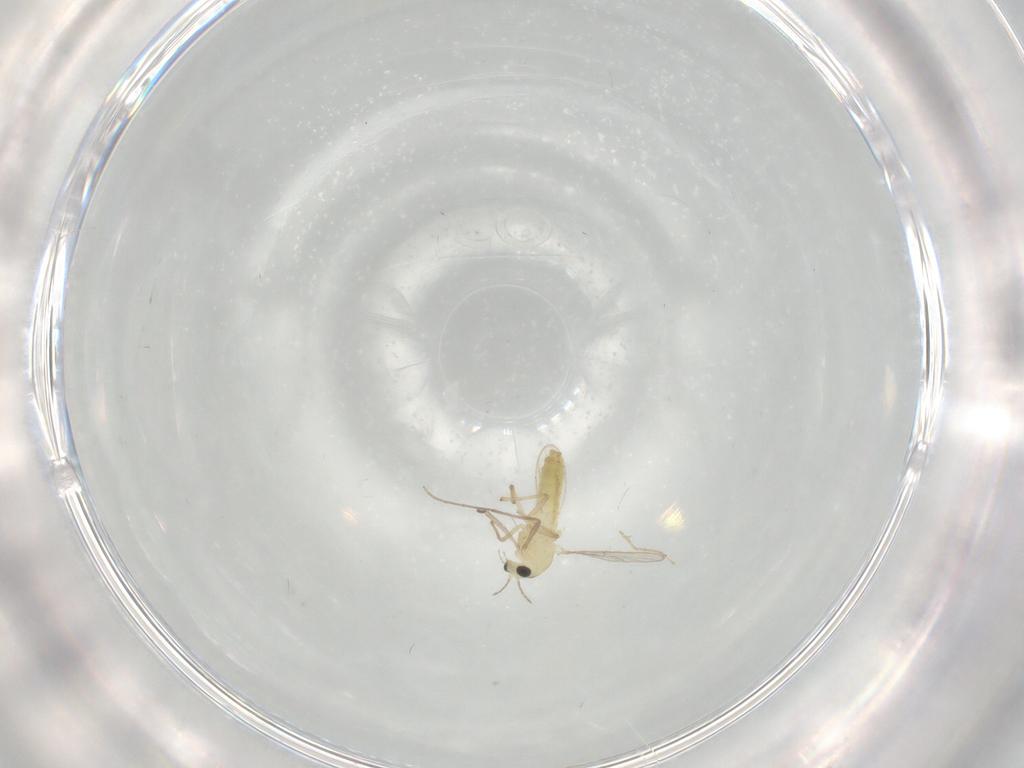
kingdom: Animalia
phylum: Arthropoda
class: Insecta
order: Diptera
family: Chironomidae
